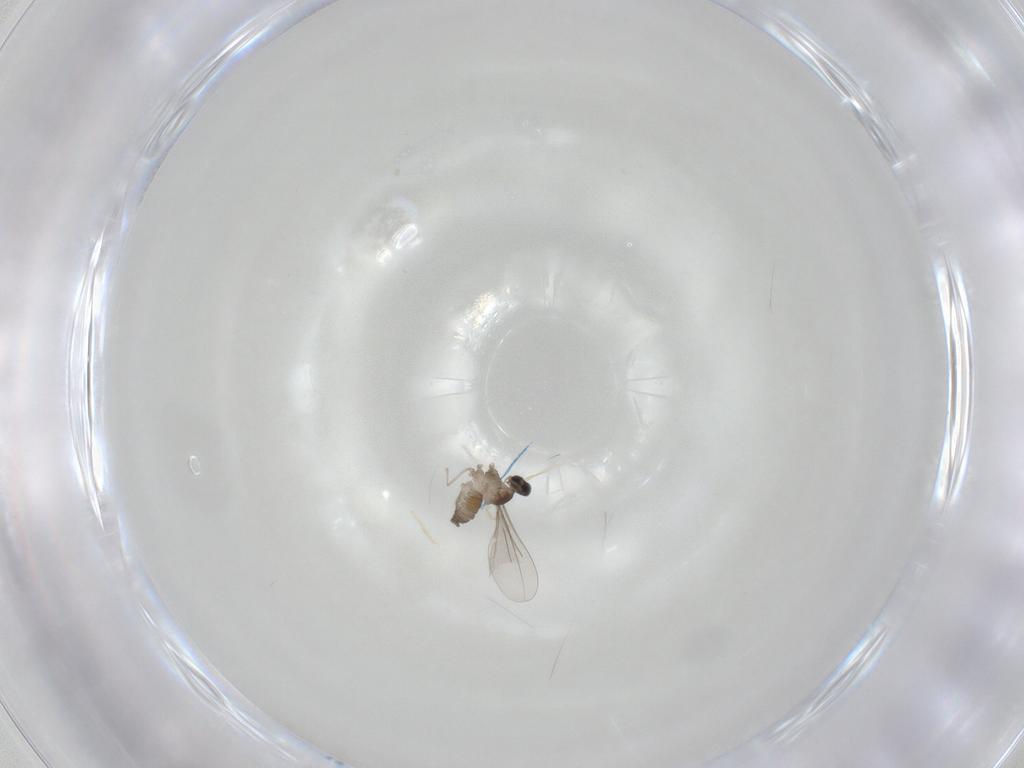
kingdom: Animalia
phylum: Arthropoda
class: Insecta
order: Diptera
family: Cecidomyiidae
